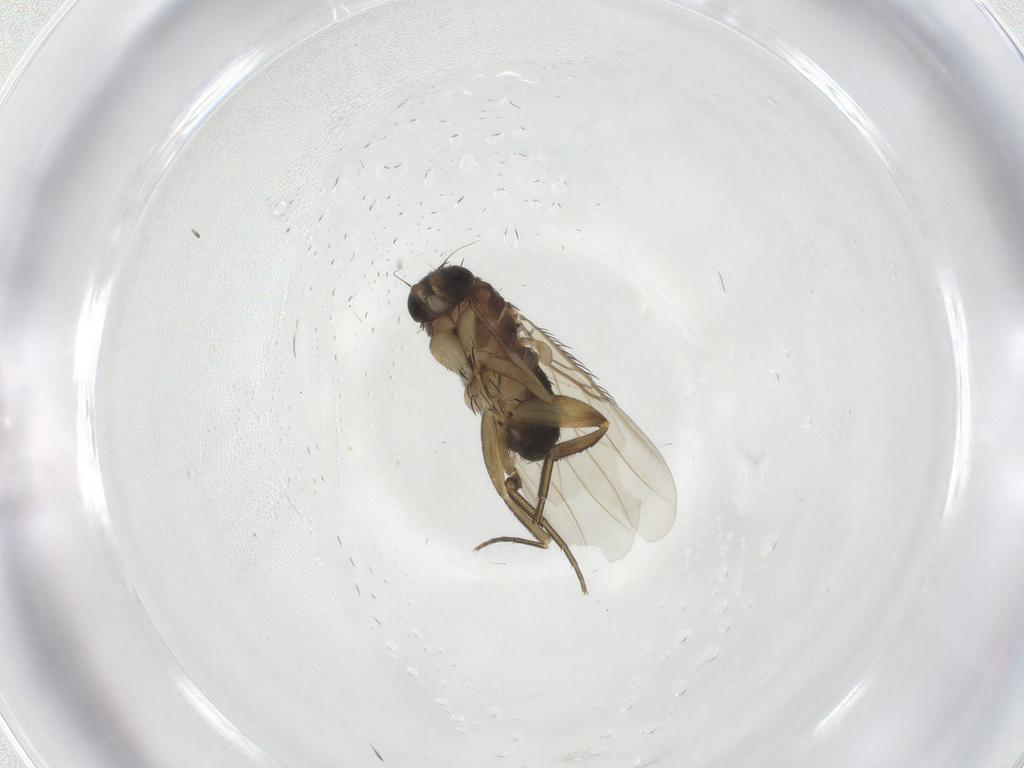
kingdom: Animalia
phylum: Arthropoda
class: Insecta
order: Diptera
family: Phoridae
